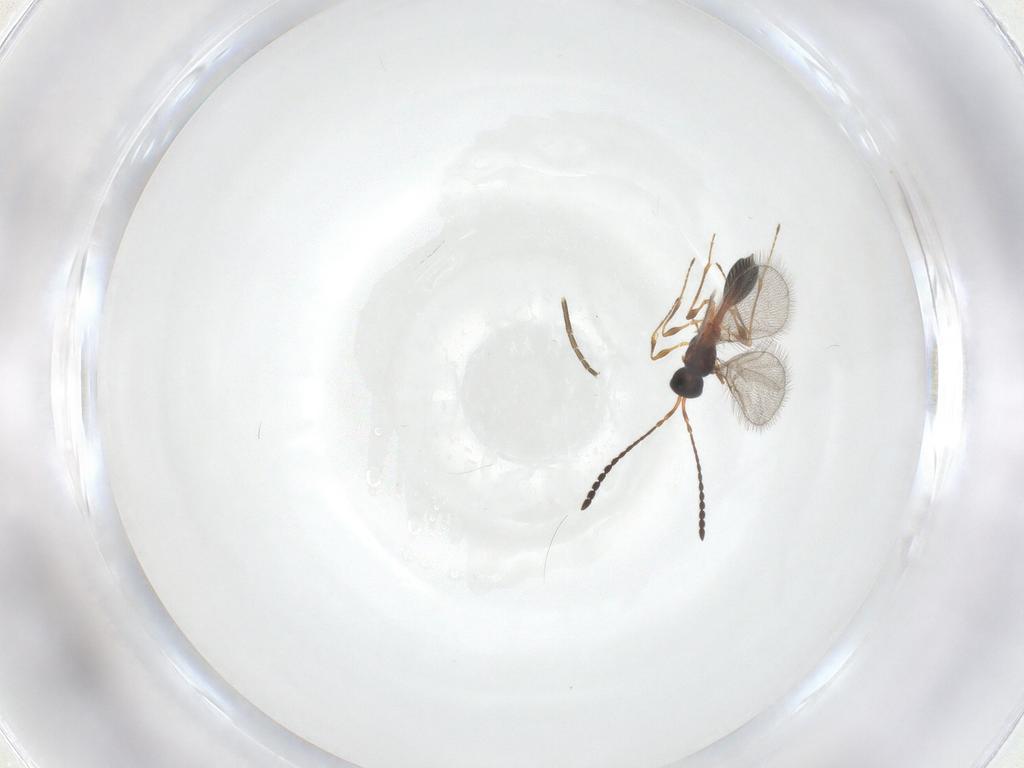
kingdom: Animalia
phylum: Arthropoda
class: Insecta
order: Hymenoptera
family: Diapriidae
